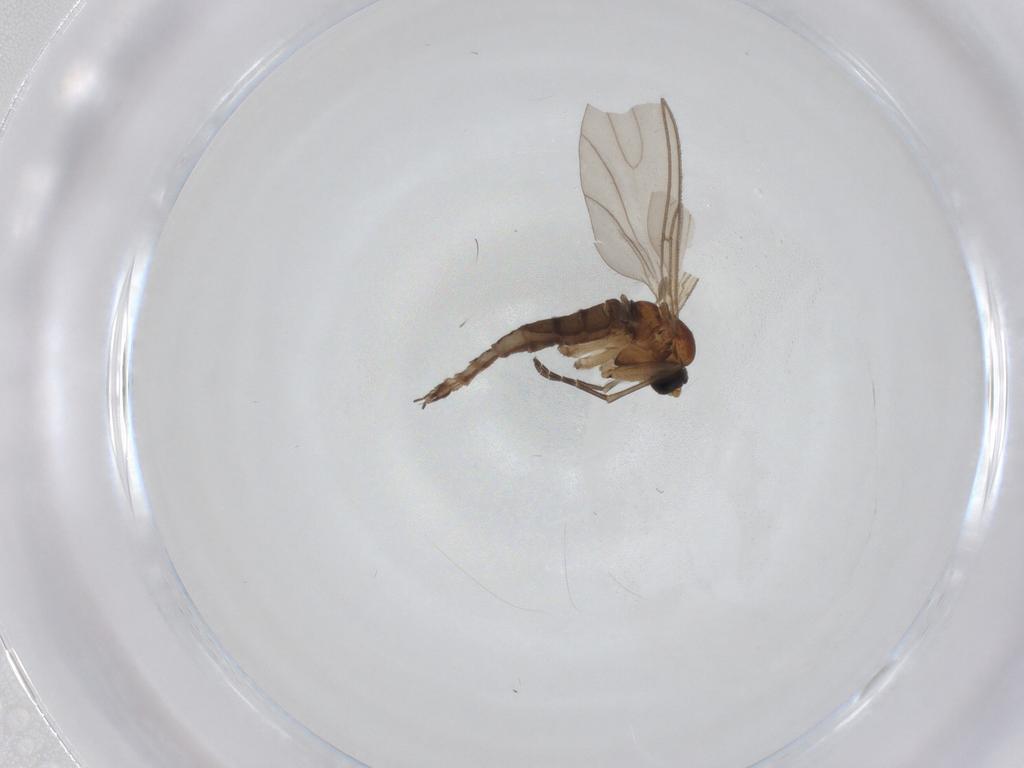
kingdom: Animalia
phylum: Arthropoda
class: Insecta
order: Diptera
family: Sciaridae
